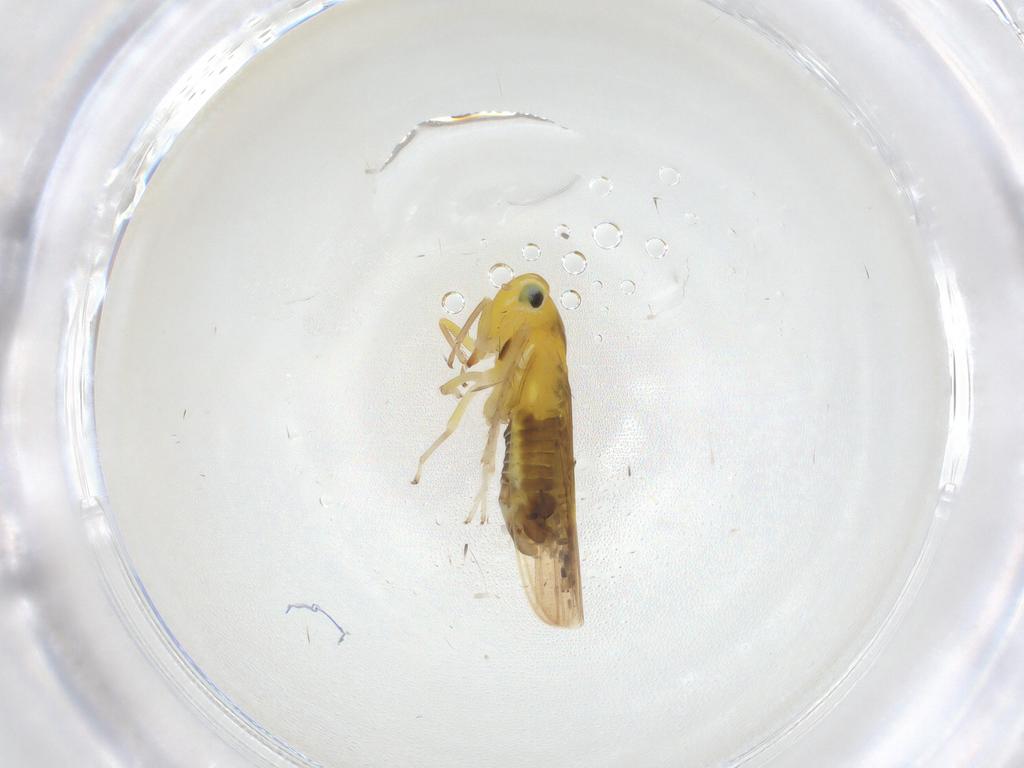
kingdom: Animalia
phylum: Arthropoda
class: Insecta
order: Hemiptera
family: Cicadellidae
